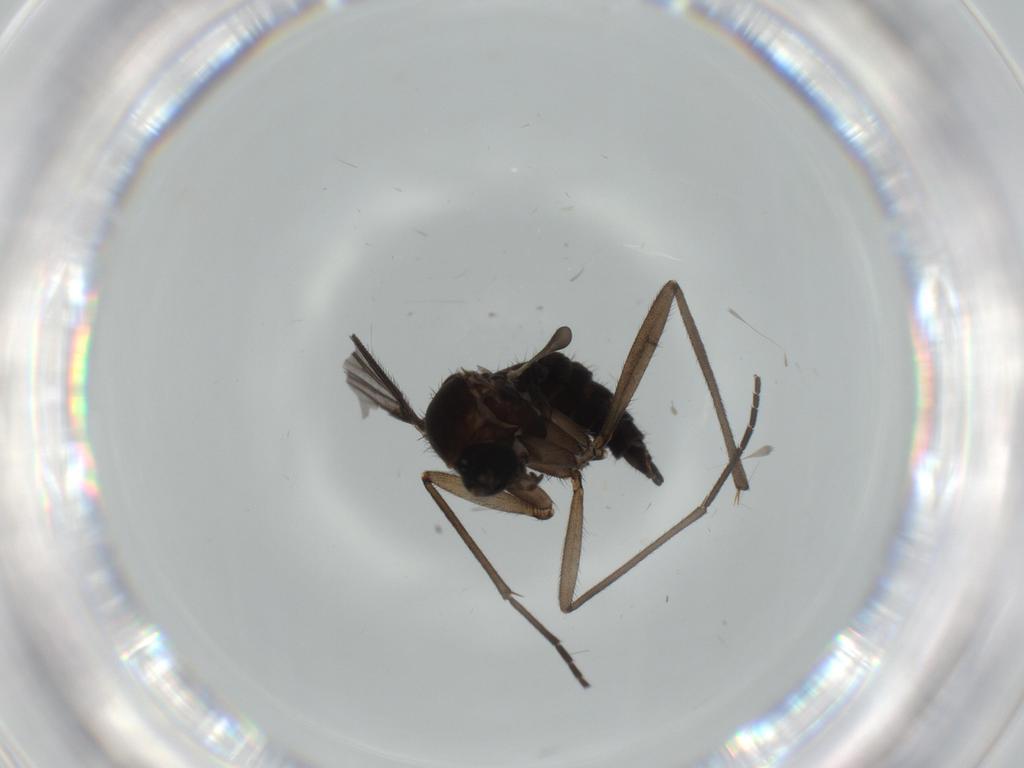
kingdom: Animalia
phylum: Arthropoda
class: Insecta
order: Diptera
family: Sciaridae
